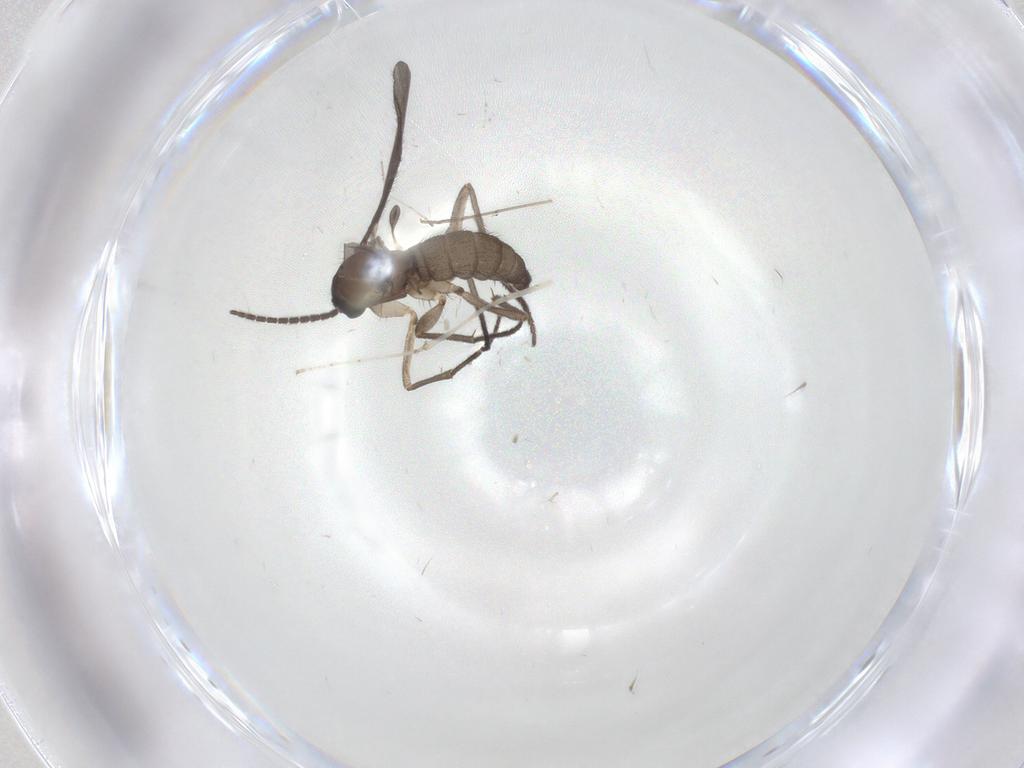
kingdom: Animalia
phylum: Arthropoda
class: Insecta
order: Diptera
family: Sciaridae
